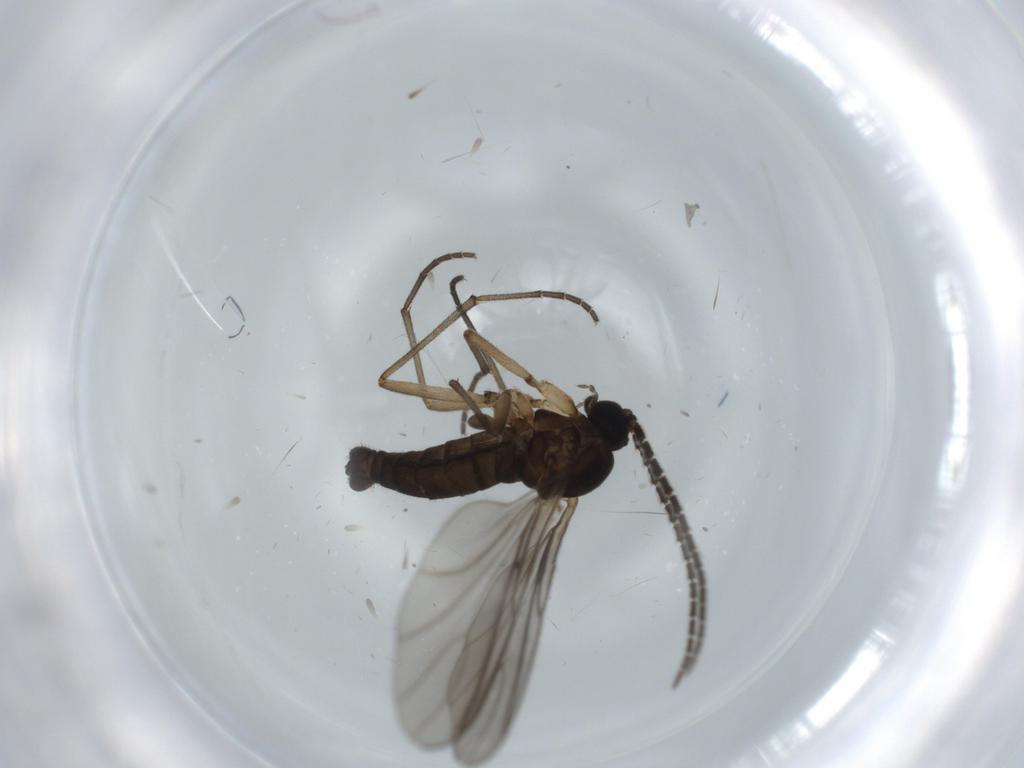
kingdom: Animalia
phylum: Arthropoda
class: Insecta
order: Diptera
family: Sciaridae
